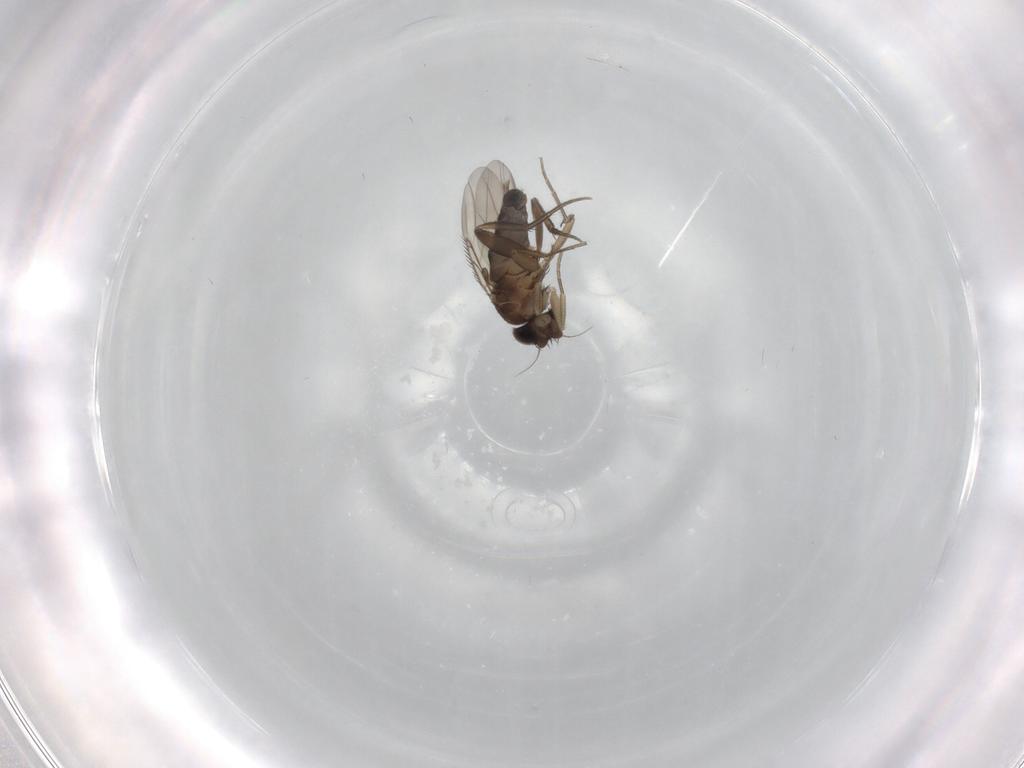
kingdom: Animalia
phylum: Arthropoda
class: Insecta
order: Diptera
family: Phoridae
